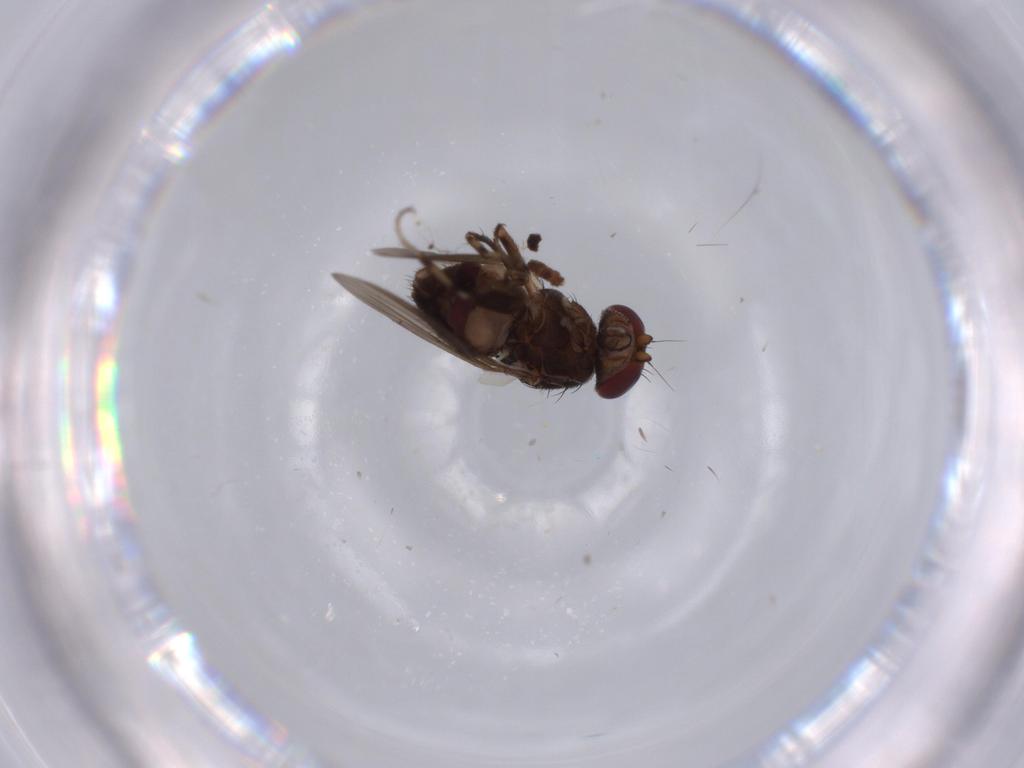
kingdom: Animalia
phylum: Arthropoda
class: Insecta
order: Diptera
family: Heleomyzidae
